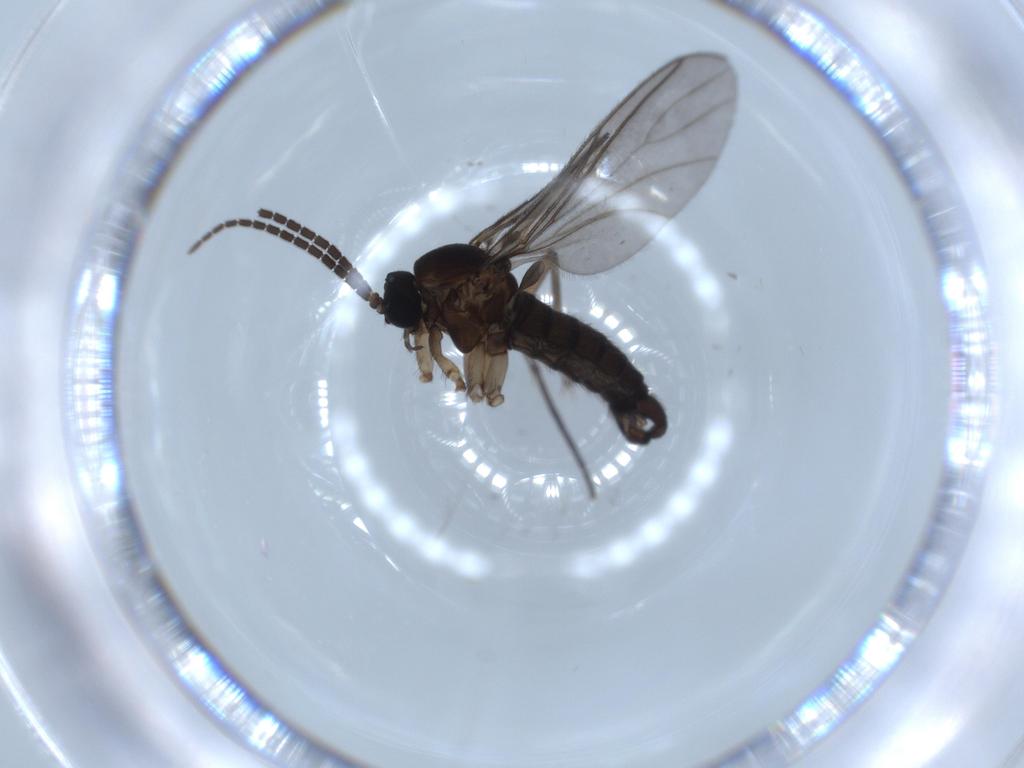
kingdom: Animalia
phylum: Arthropoda
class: Insecta
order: Diptera
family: Sciaridae
